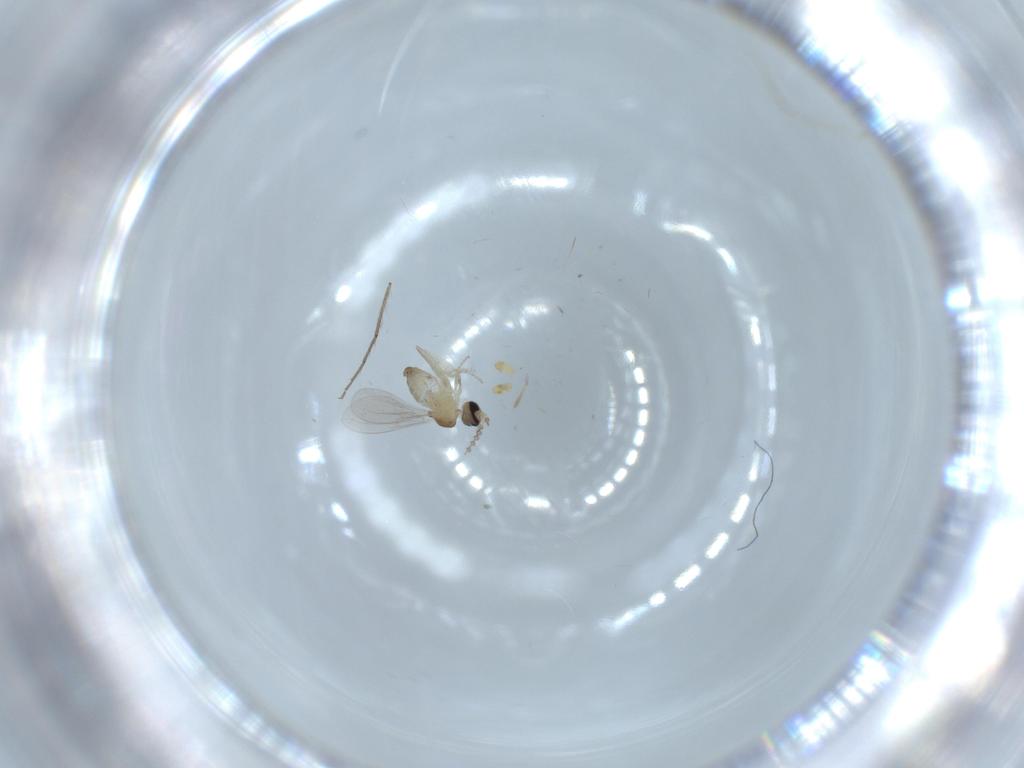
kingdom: Animalia
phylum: Arthropoda
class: Insecta
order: Diptera
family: Cecidomyiidae
